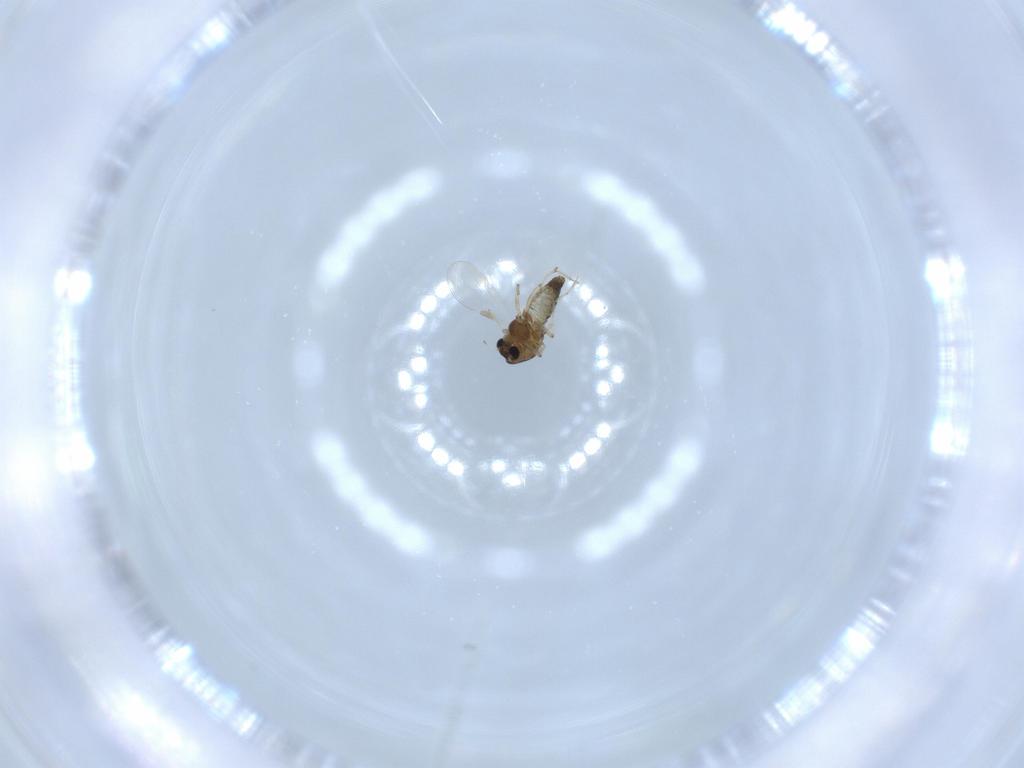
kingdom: Animalia
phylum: Arthropoda
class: Insecta
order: Diptera
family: Chironomidae
